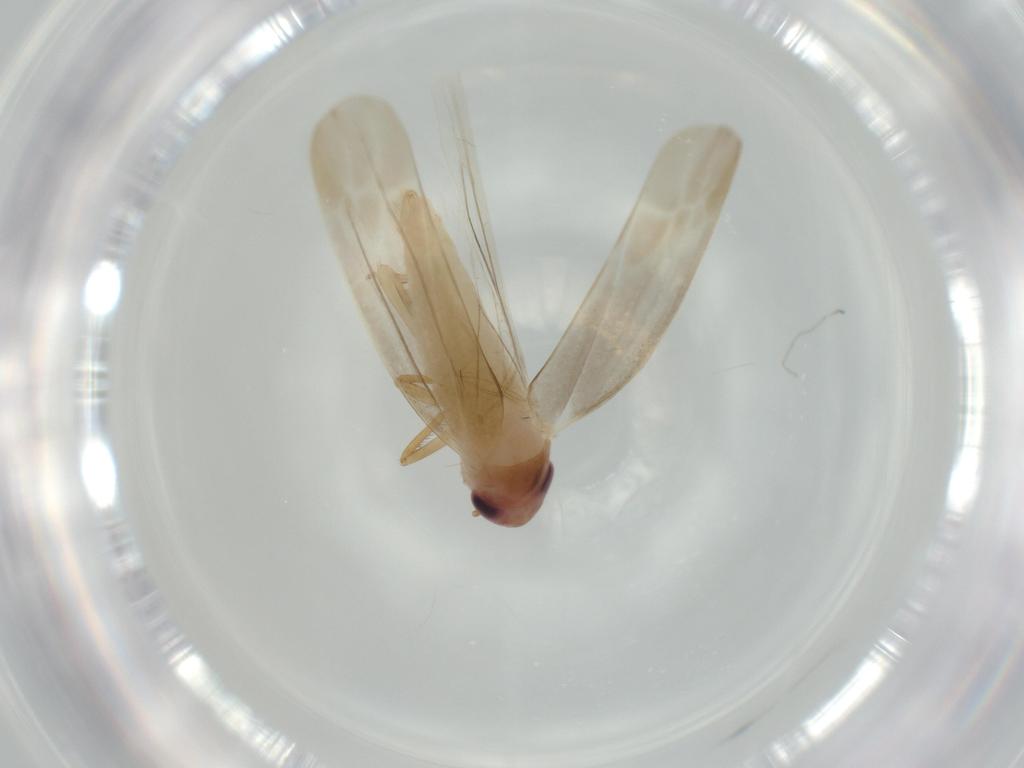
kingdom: Animalia
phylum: Arthropoda
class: Insecta
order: Hemiptera
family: Cicadellidae
